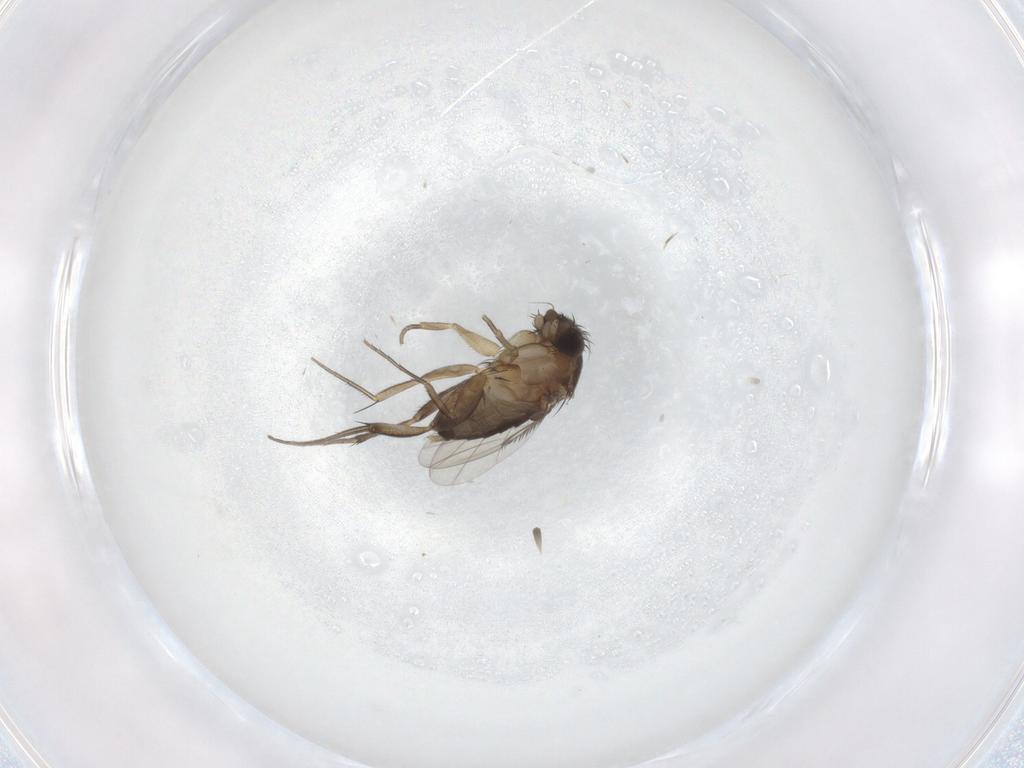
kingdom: Animalia
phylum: Arthropoda
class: Insecta
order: Diptera
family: Phoridae
